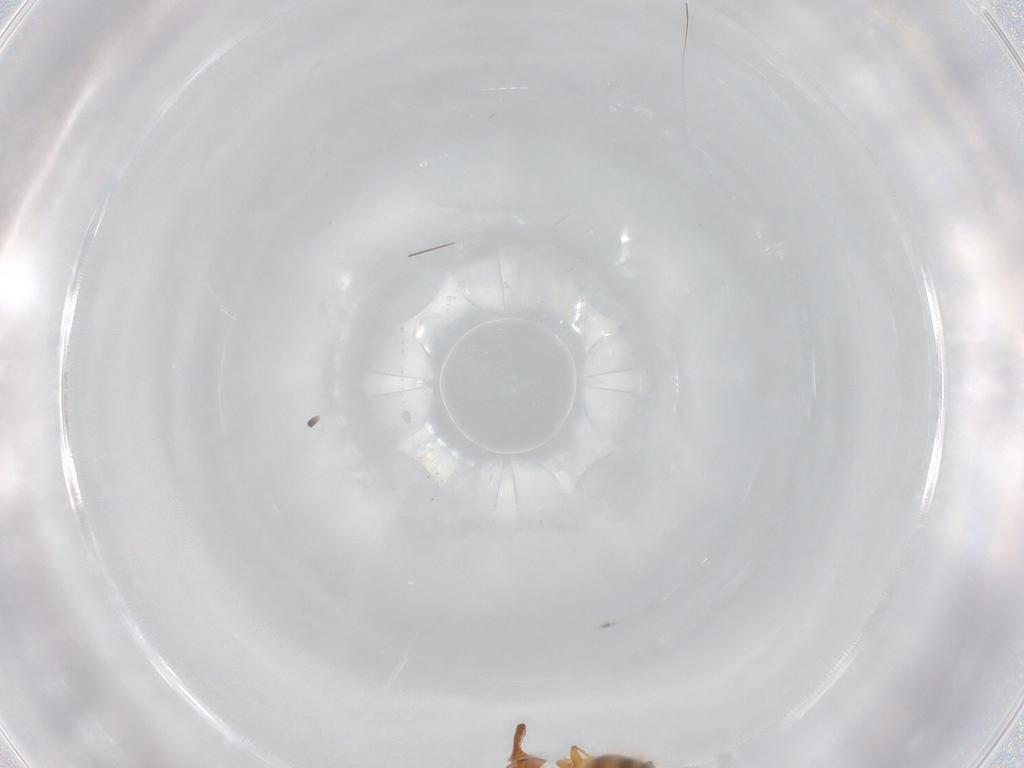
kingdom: Animalia
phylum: Arthropoda
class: Insecta
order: Hymenoptera
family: Formicidae
